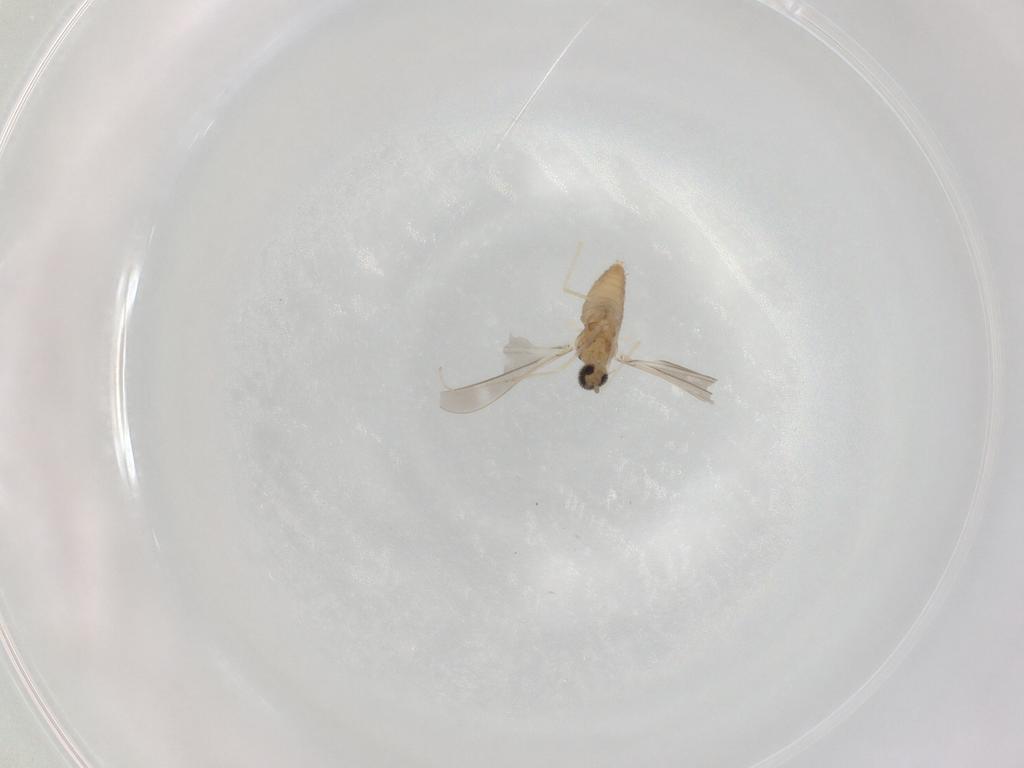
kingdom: Animalia
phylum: Arthropoda
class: Insecta
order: Diptera
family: Cecidomyiidae
